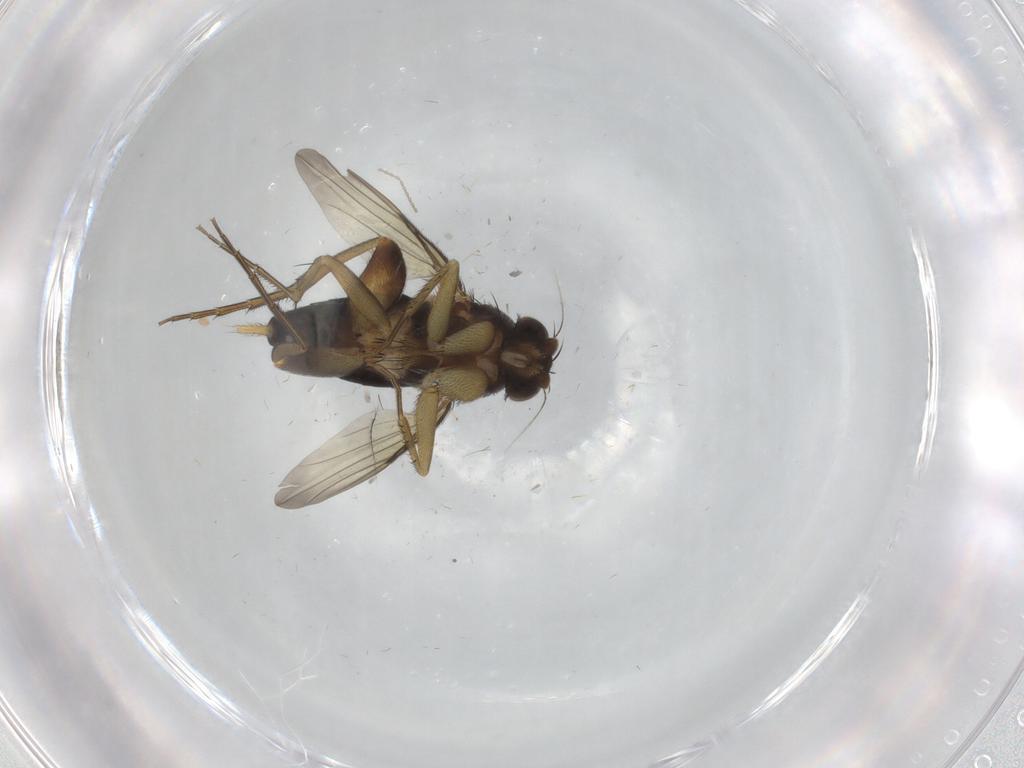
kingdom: Animalia
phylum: Arthropoda
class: Insecta
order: Diptera
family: Phoridae
